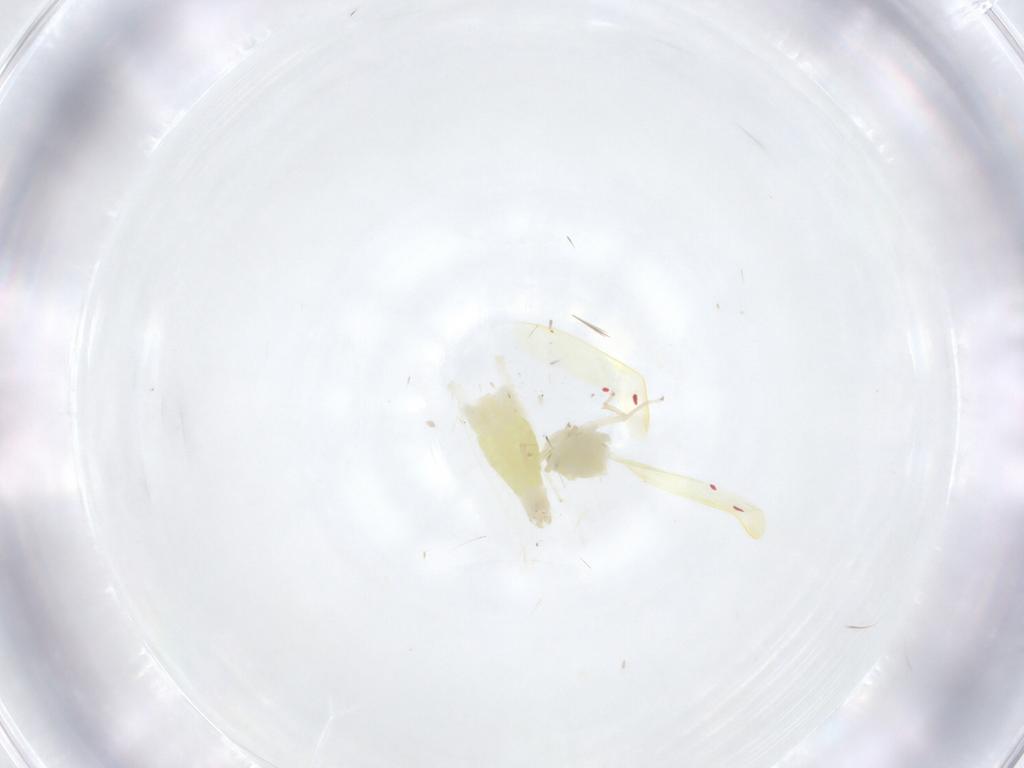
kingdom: Animalia
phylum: Arthropoda
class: Insecta
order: Hemiptera
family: Cicadellidae
